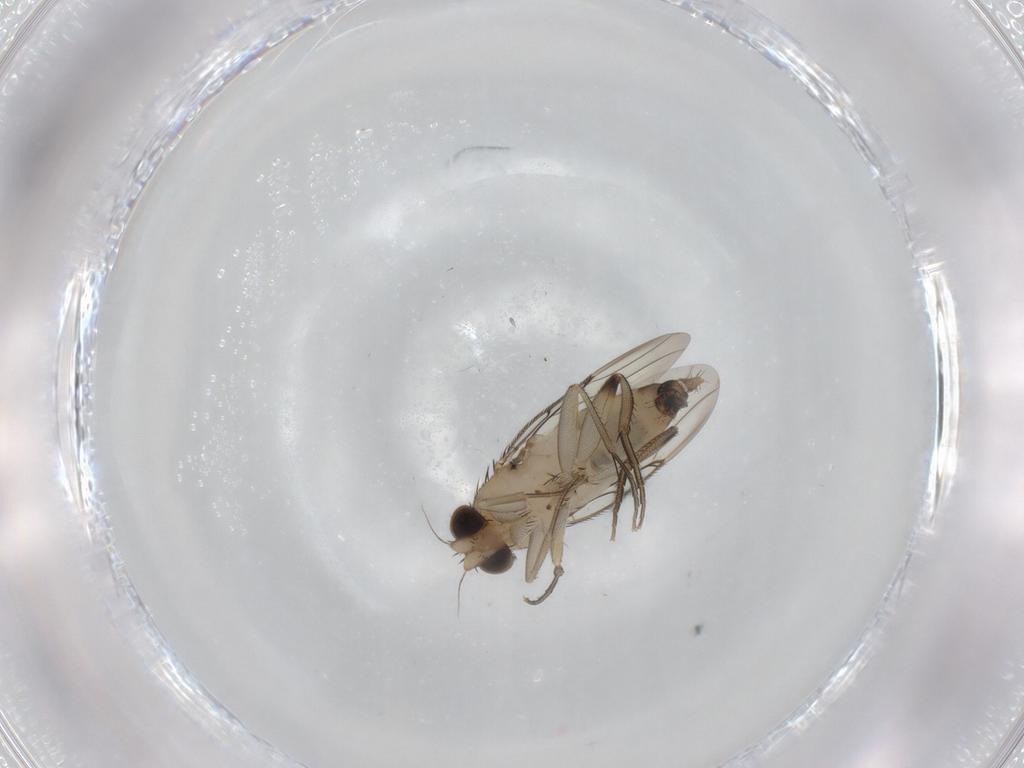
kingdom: Animalia
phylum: Arthropoda
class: Insecta
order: Diptera
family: Phoridae
